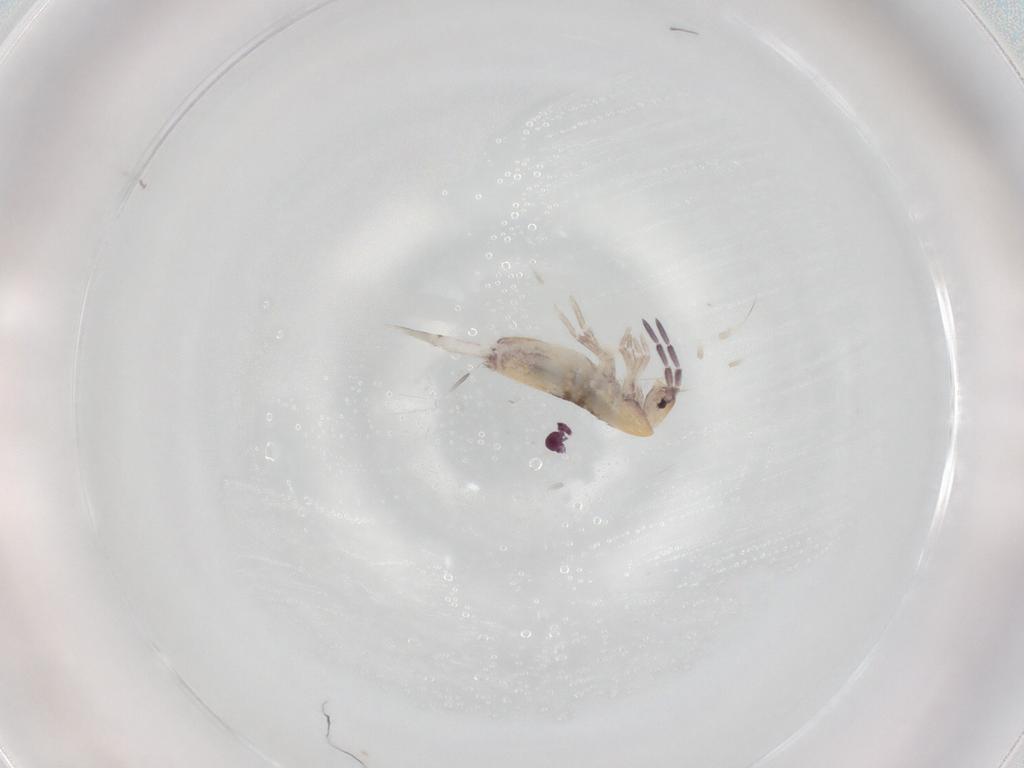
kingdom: Animalia
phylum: Arthropoda
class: Collembola
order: Symphypleona
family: Sminthurididae
